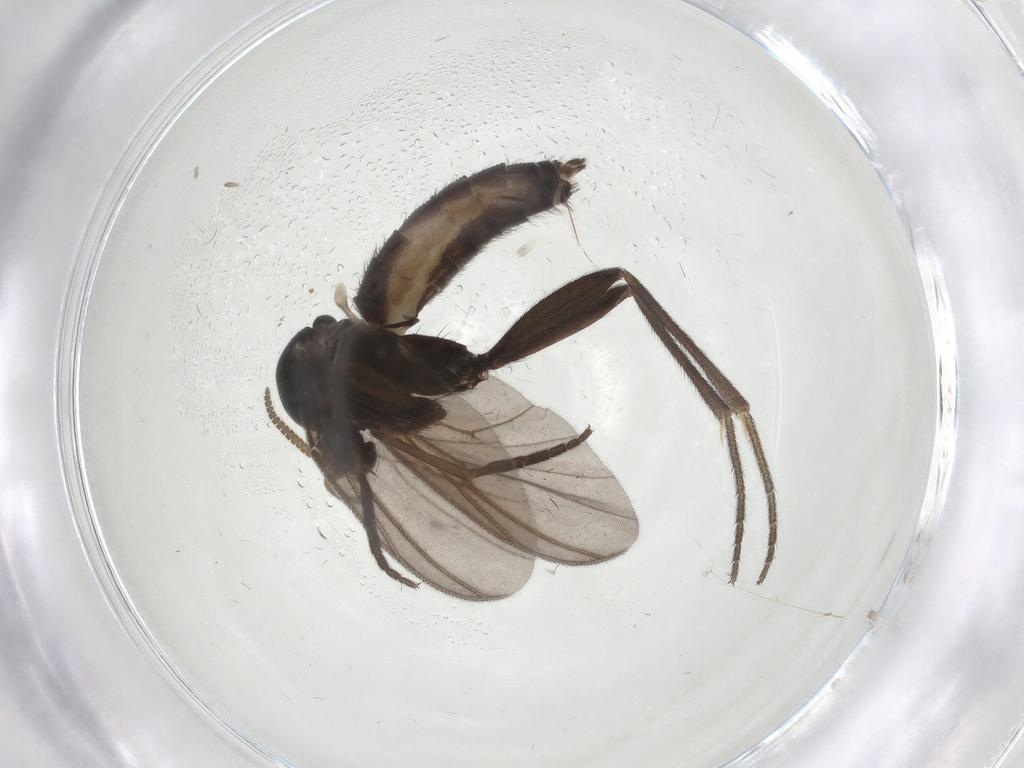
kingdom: Animalia
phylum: Arthropoda
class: Insecta
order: Diptera
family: Mycetophilidae
